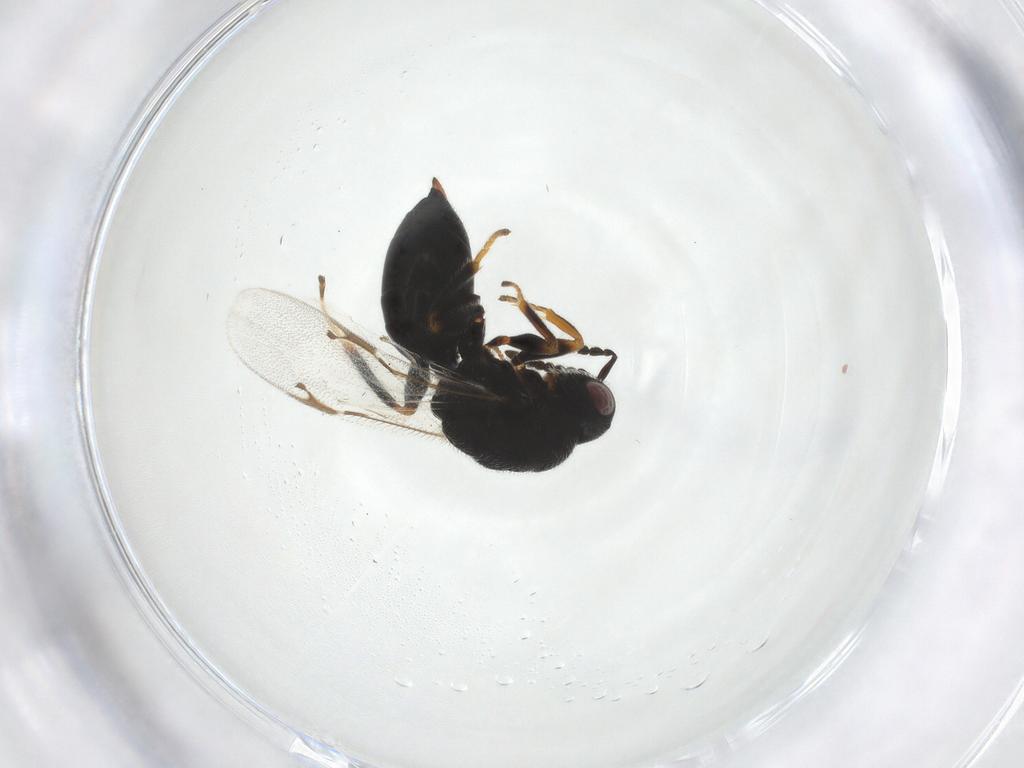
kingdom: Animalia
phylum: Arthropoda
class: Insecta
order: Hymenoptera
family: Eurytomidae
